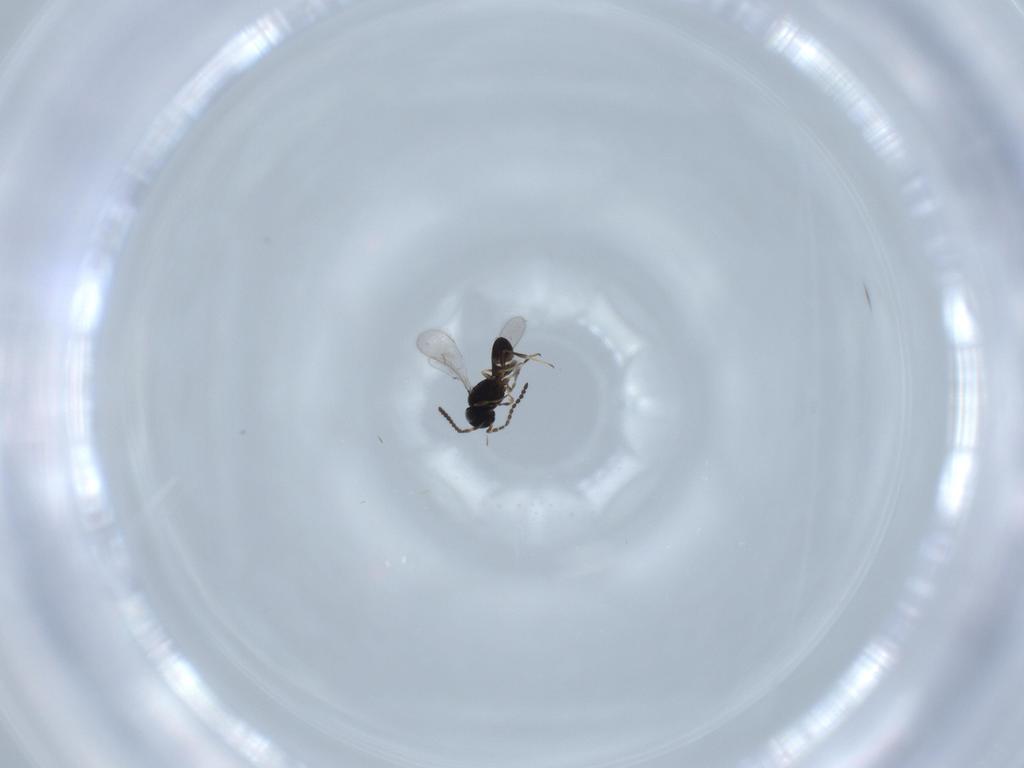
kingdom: Animalia
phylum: Arthropoda
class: Insecta
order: Hymenoptera
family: Scelionidae
